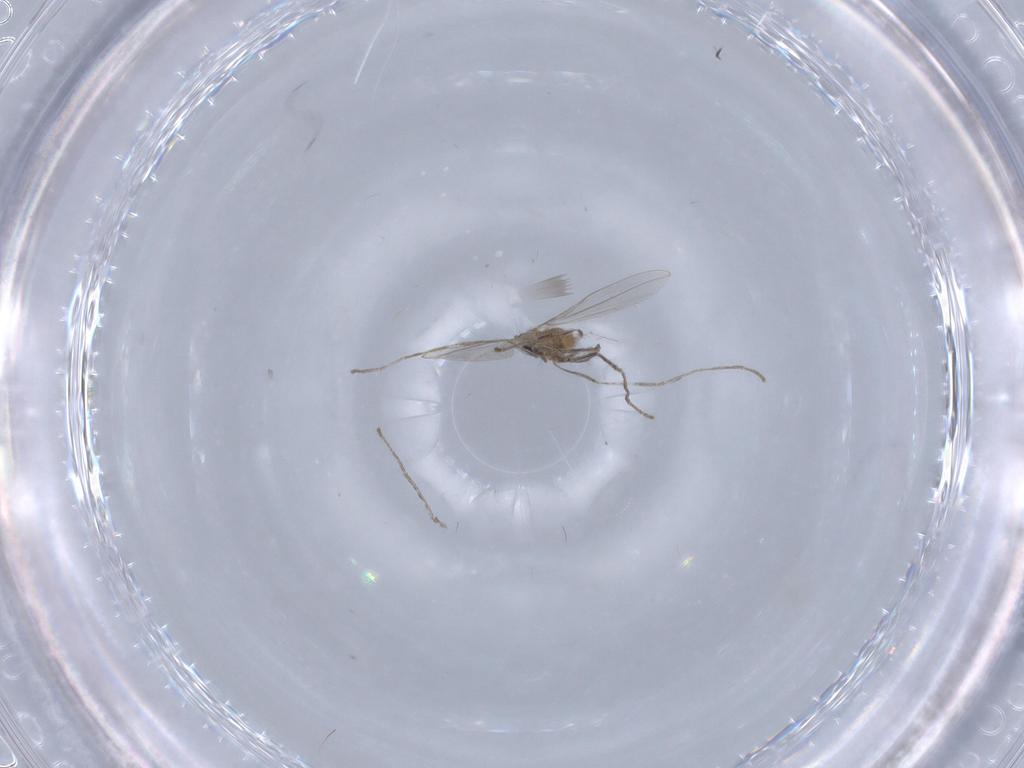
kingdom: Animalia
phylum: Arthropoda
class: Insecta
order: Diptera
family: Cecidomyiidae
